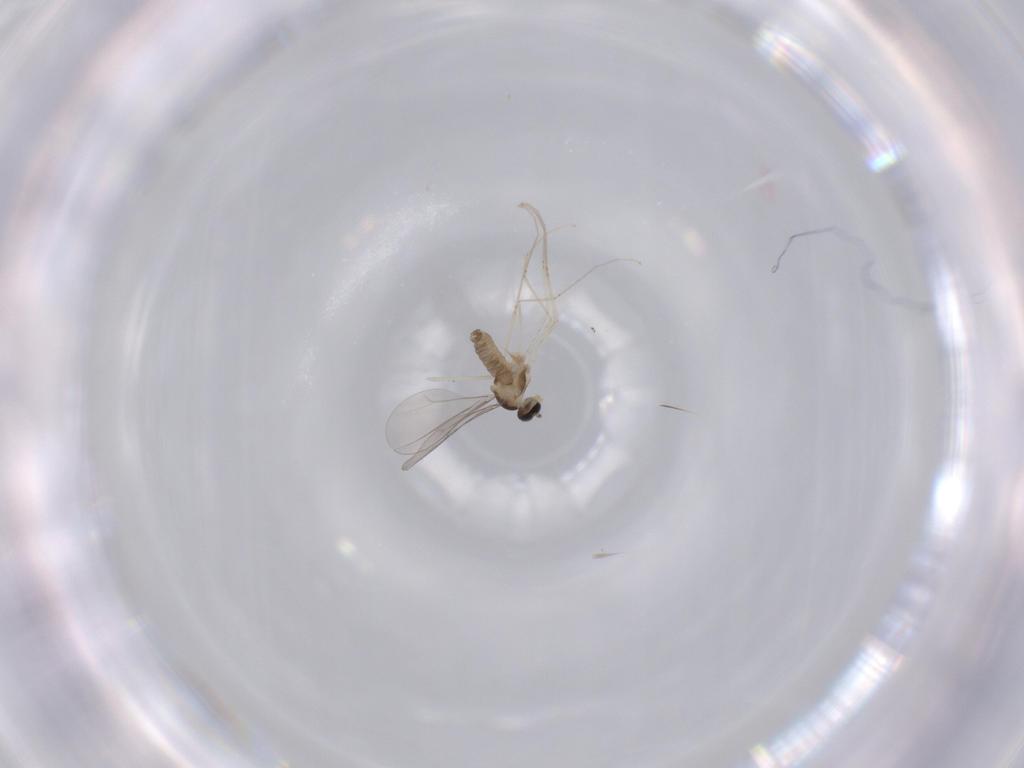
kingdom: Animalia
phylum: Arthropoda
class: Insecta
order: Diptera
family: Cecidomyiidae
